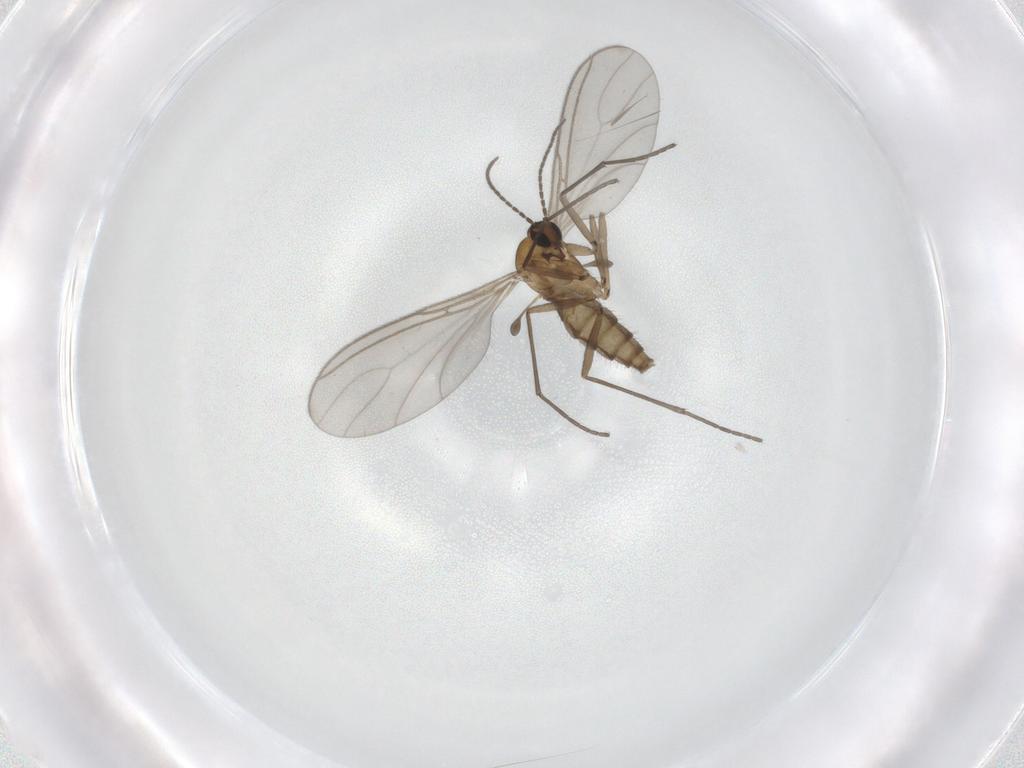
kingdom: Animalia
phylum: Arthropoda
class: Insecta
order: Diptera
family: Sciaridae
